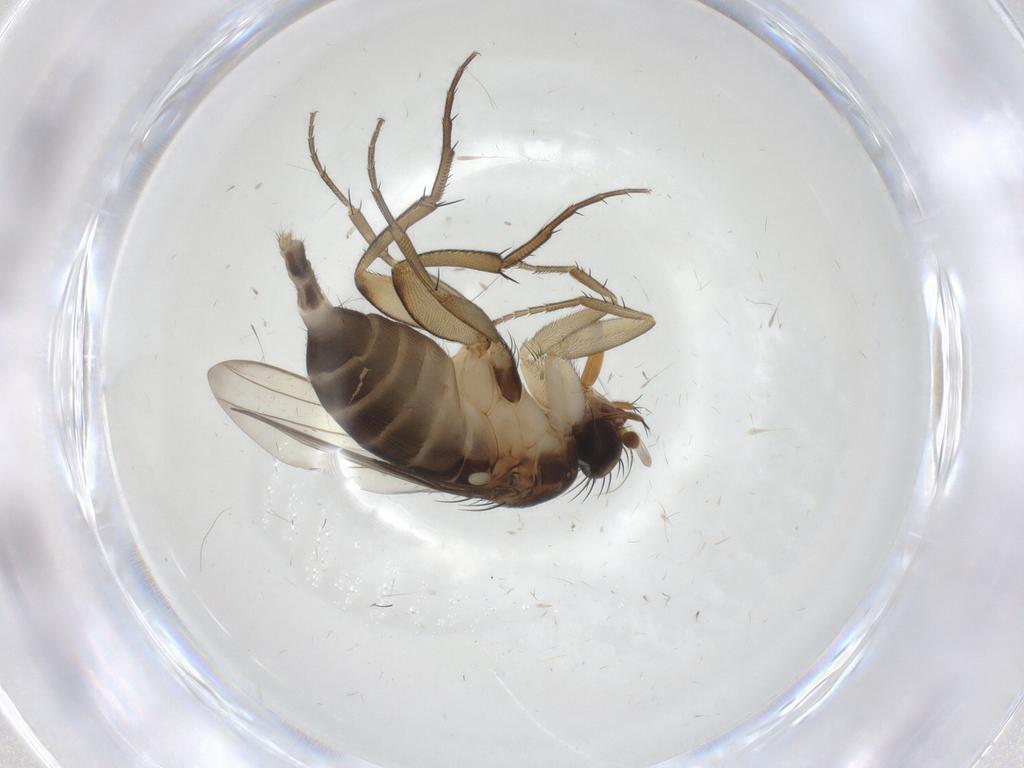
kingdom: Animalia
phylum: Arthropoda
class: Insecta
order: Diptera
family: Phoridae
